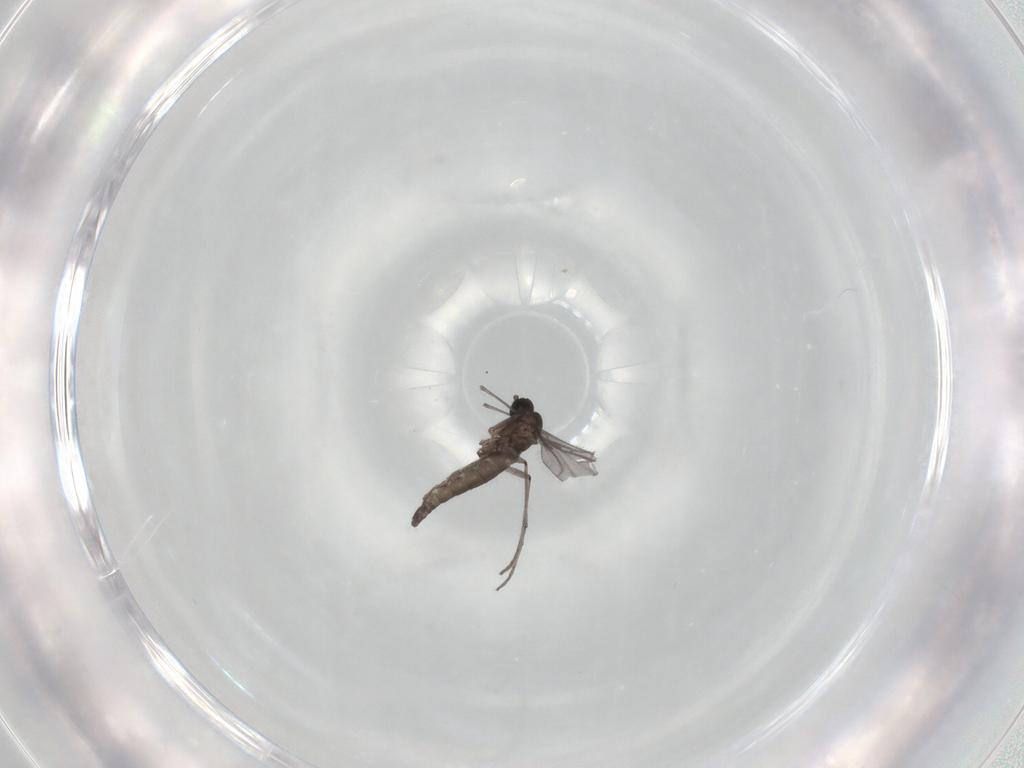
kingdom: Animalia
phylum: Arthropoda
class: Insecta
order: Diptera
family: Sciaridae
